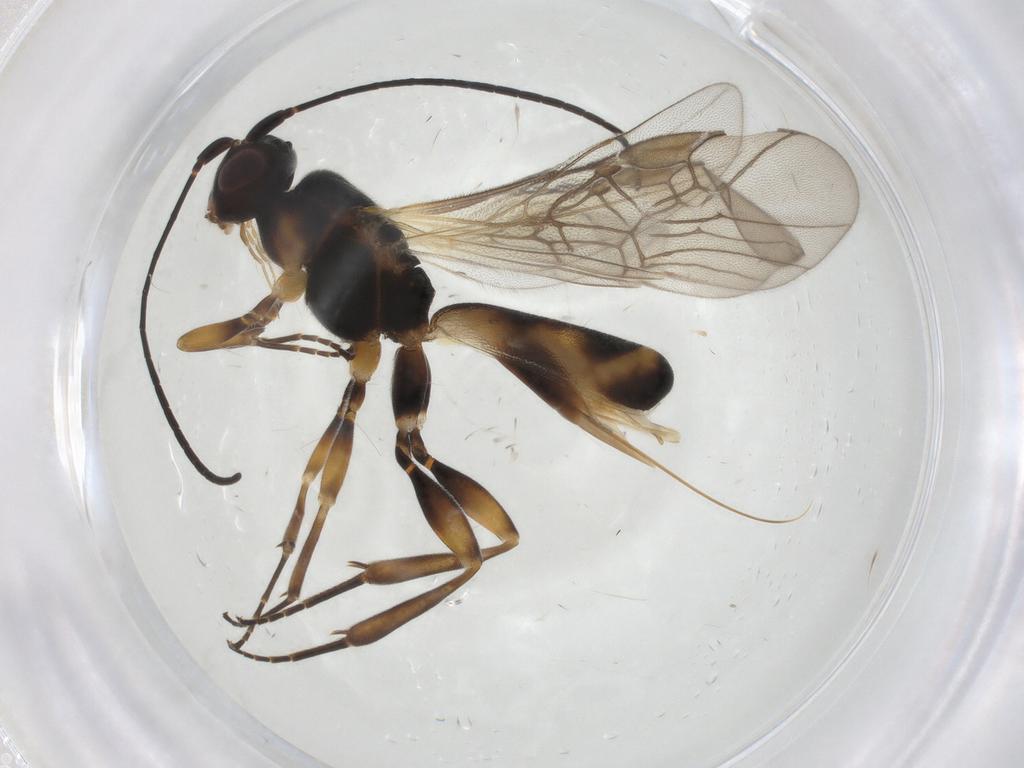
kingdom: Animalia
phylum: Arthropoda
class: Insecta
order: Hymenoptera
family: Braconidae
